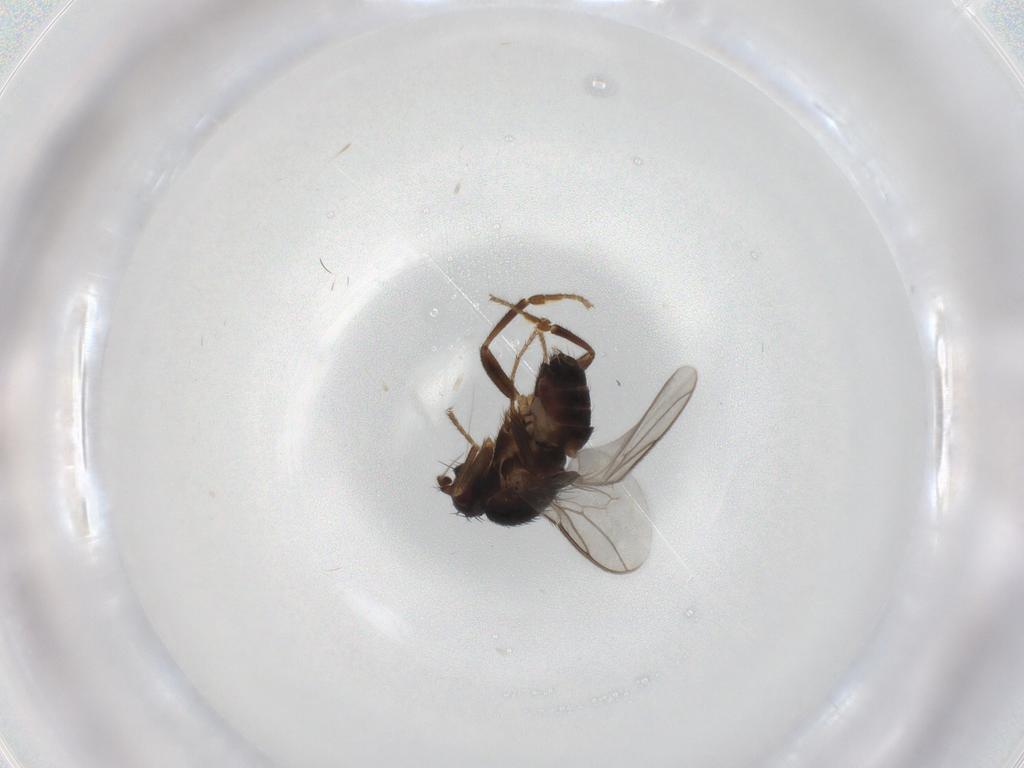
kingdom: Animalia
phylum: Arthropoda
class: Insecta
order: Diptera
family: Sphaeroceridae
